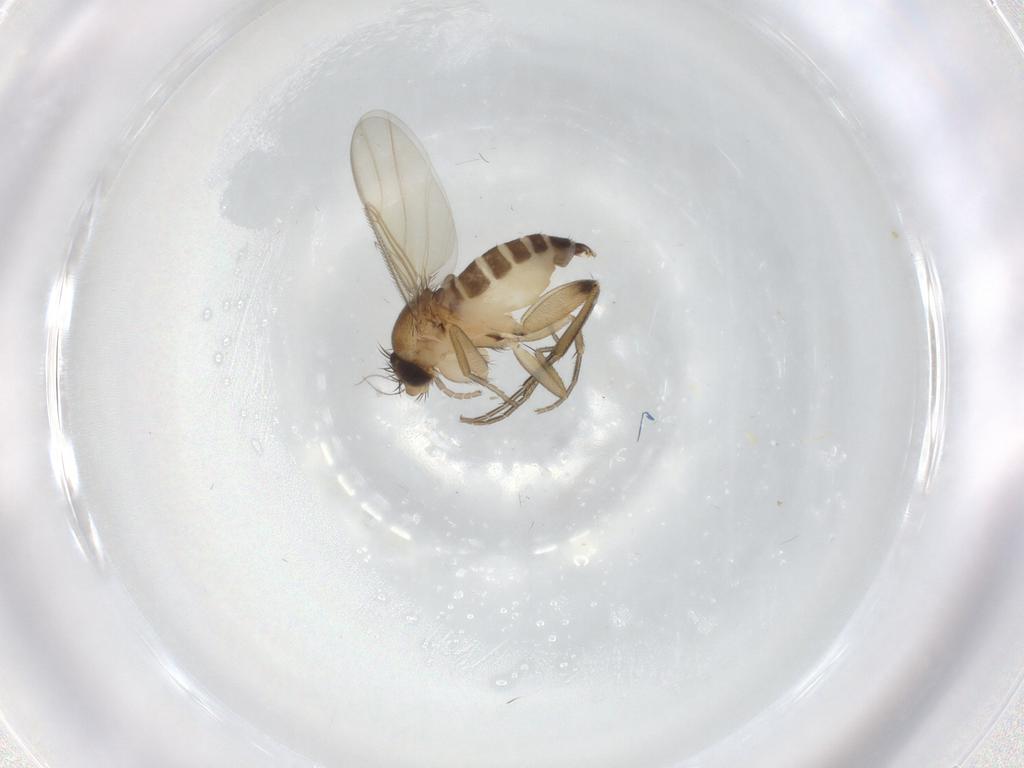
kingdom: Animalia
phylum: Arthropoda
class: Insecta
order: Diptera
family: Phoridae
